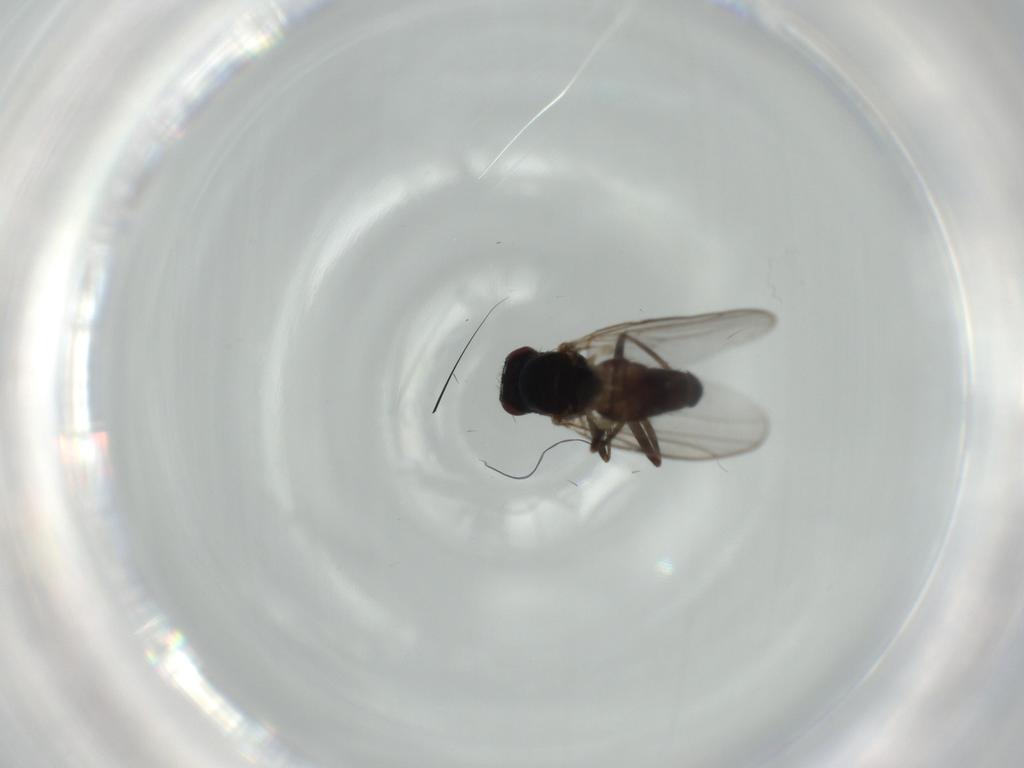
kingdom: Animalia
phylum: Arthropoda
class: Insecta
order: Diptera
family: Chloropidae
